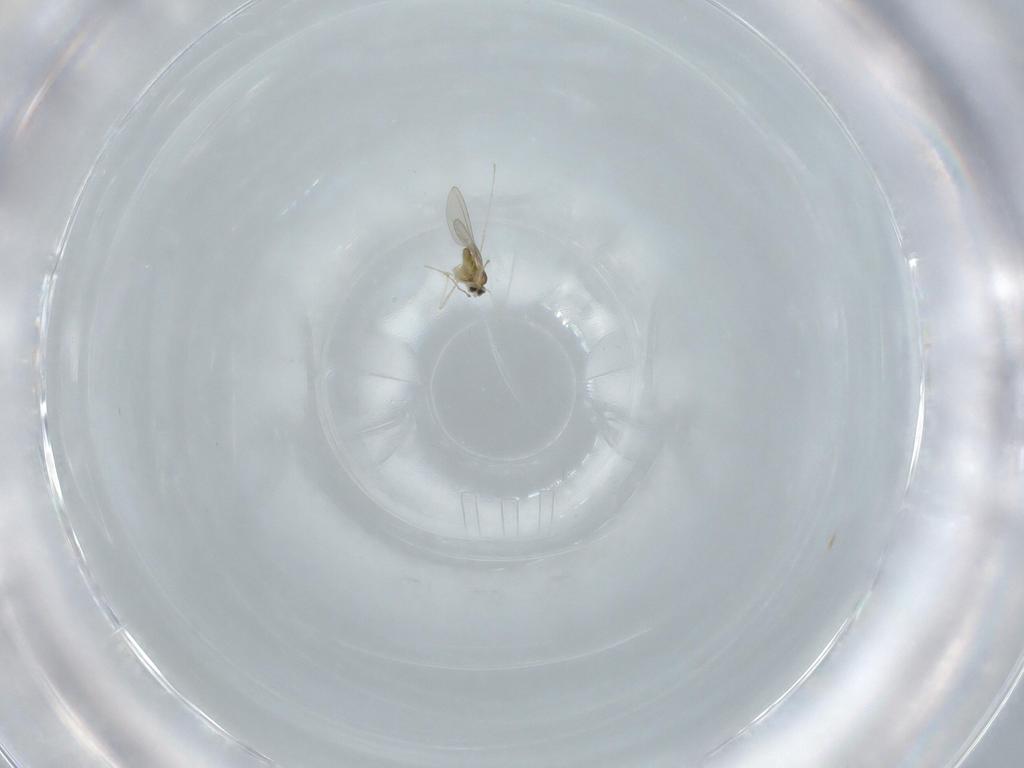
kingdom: Animalia
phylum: Arthropoda
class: Insecta
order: Diptera
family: Cecidomyiidae
